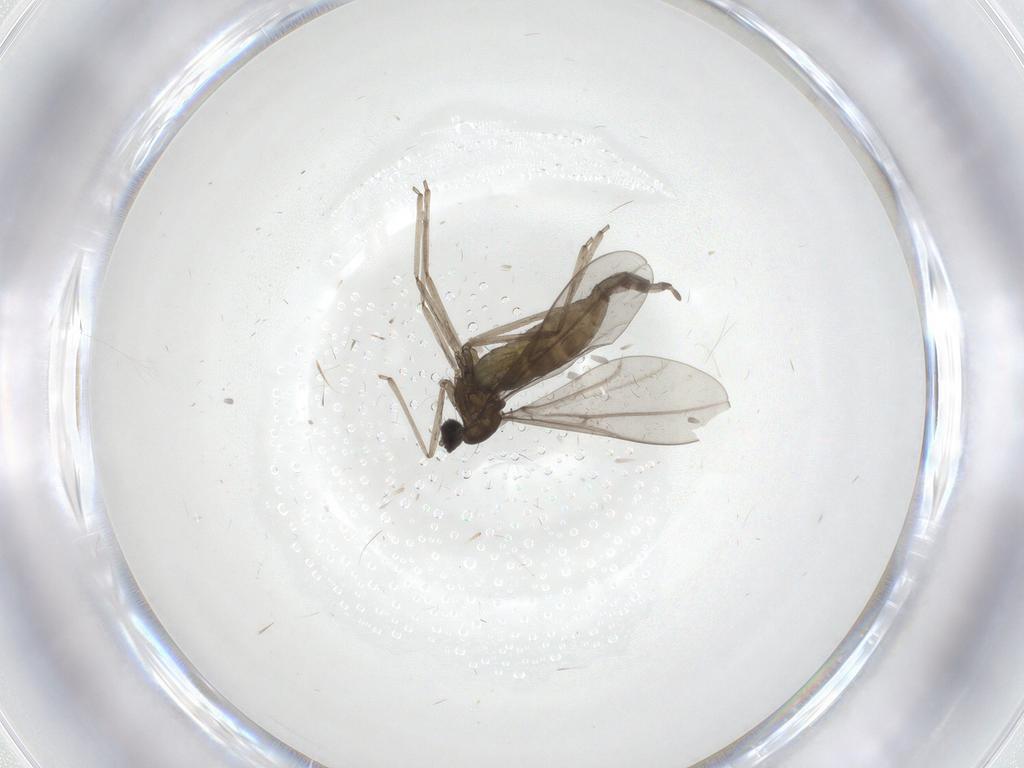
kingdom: Animalia
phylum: Arthropoda
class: Insecta
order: Diptera
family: Cecidomyiidae
